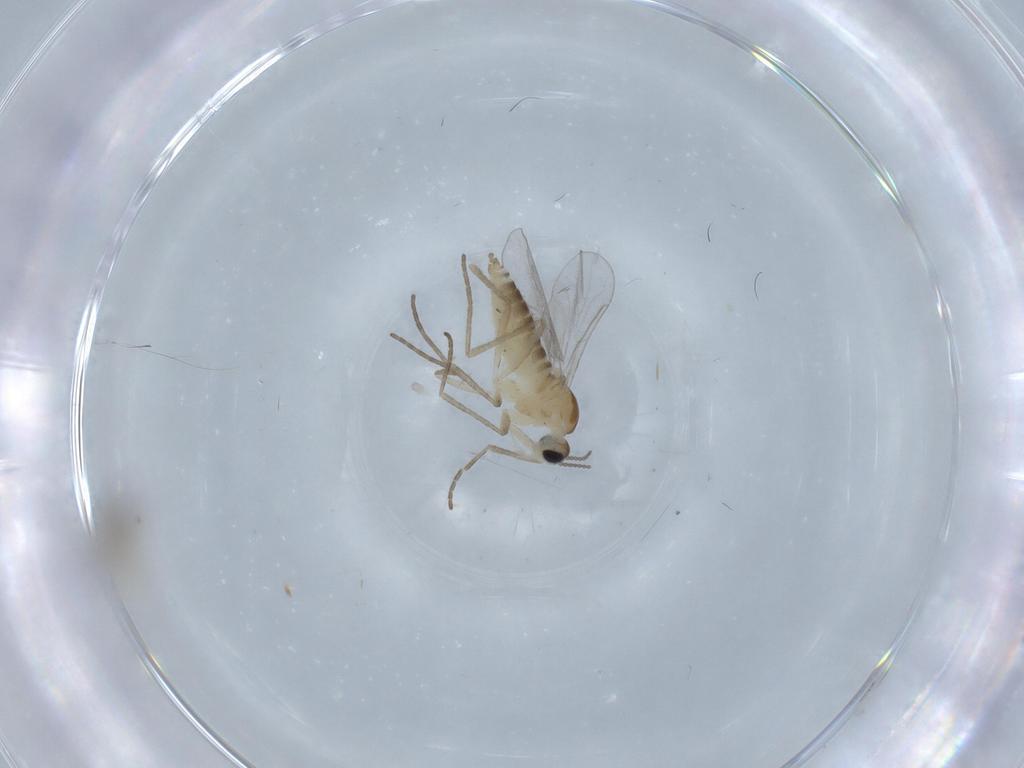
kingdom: Animalia
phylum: Arthropoda
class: Insecta
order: Diptera
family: Cecidomyiidae
